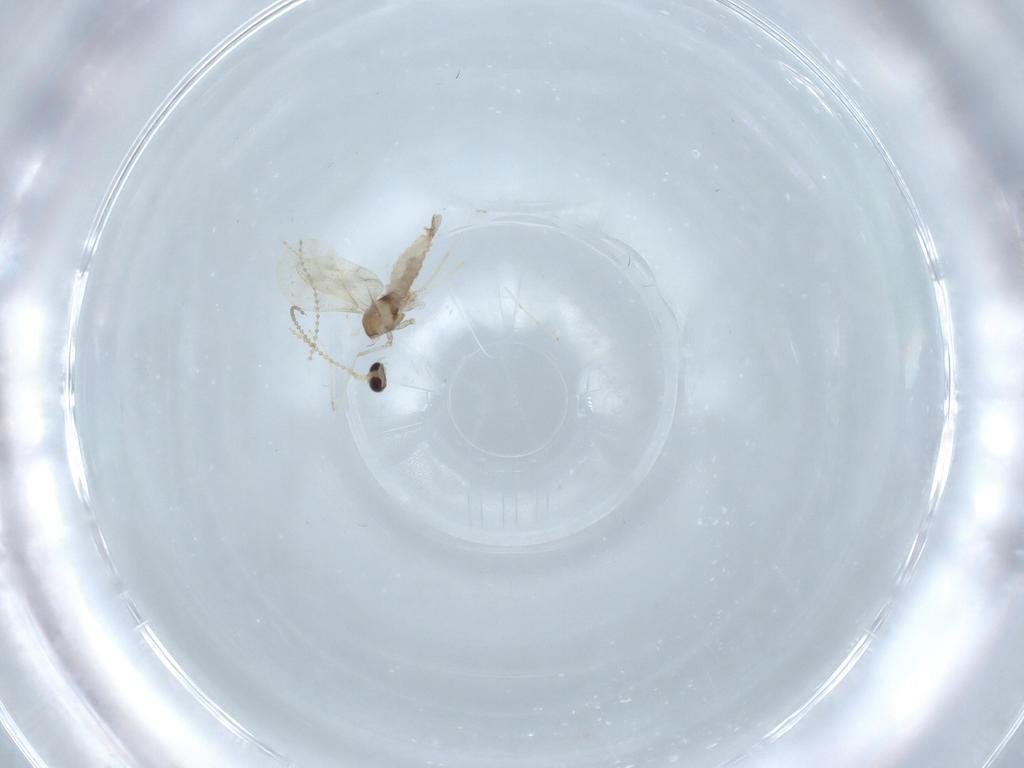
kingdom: Animalia
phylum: Arthropoda
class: Insecta
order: Diptera
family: Cecidomyiidae
